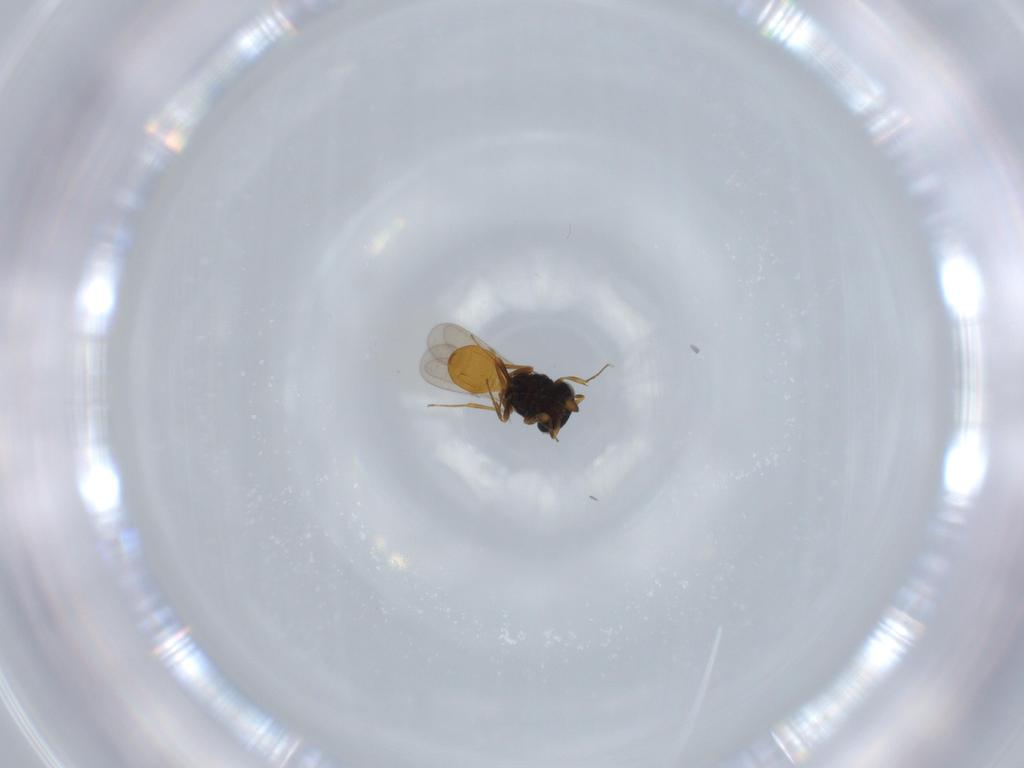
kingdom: Animalia
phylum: Arthropoda
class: Insecta
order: Hymenoptera
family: Scelionidae
